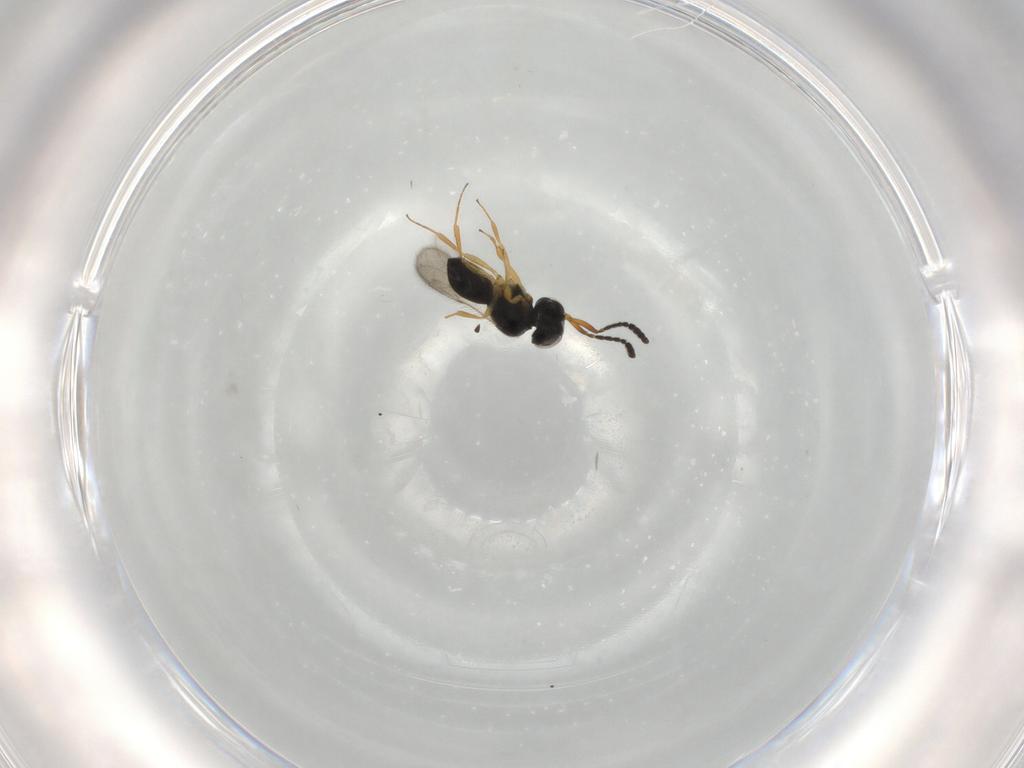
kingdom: Animalia
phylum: Arthropoda
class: Insecta
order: Hymenoptera
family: Scelionidae
